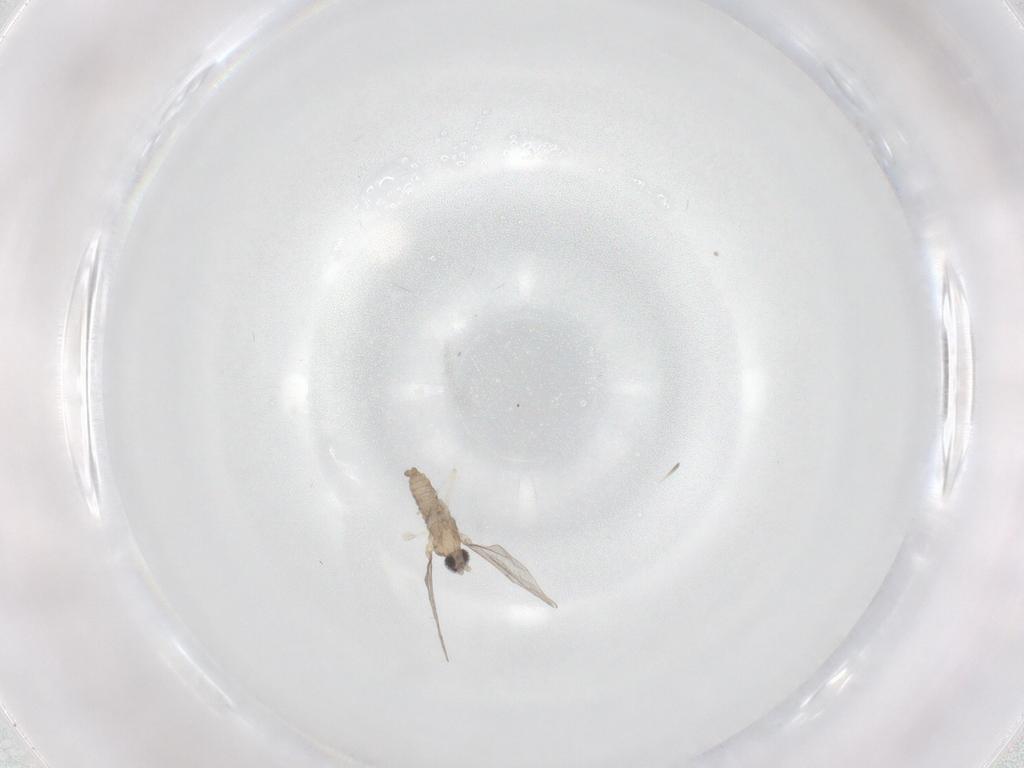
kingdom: Animalia
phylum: Arthropoda
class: Insecta
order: Diptera
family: Cecidomyiidae
